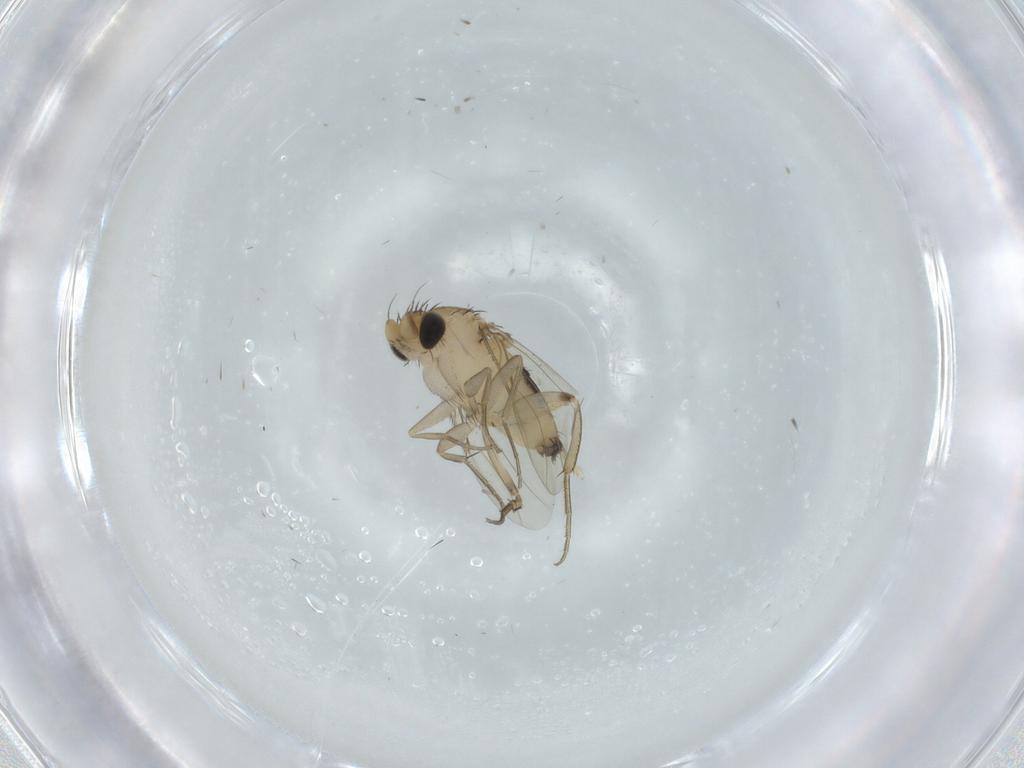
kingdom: Animalia
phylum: Arthropoda
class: Insecta
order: Diptera
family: Phoridae
